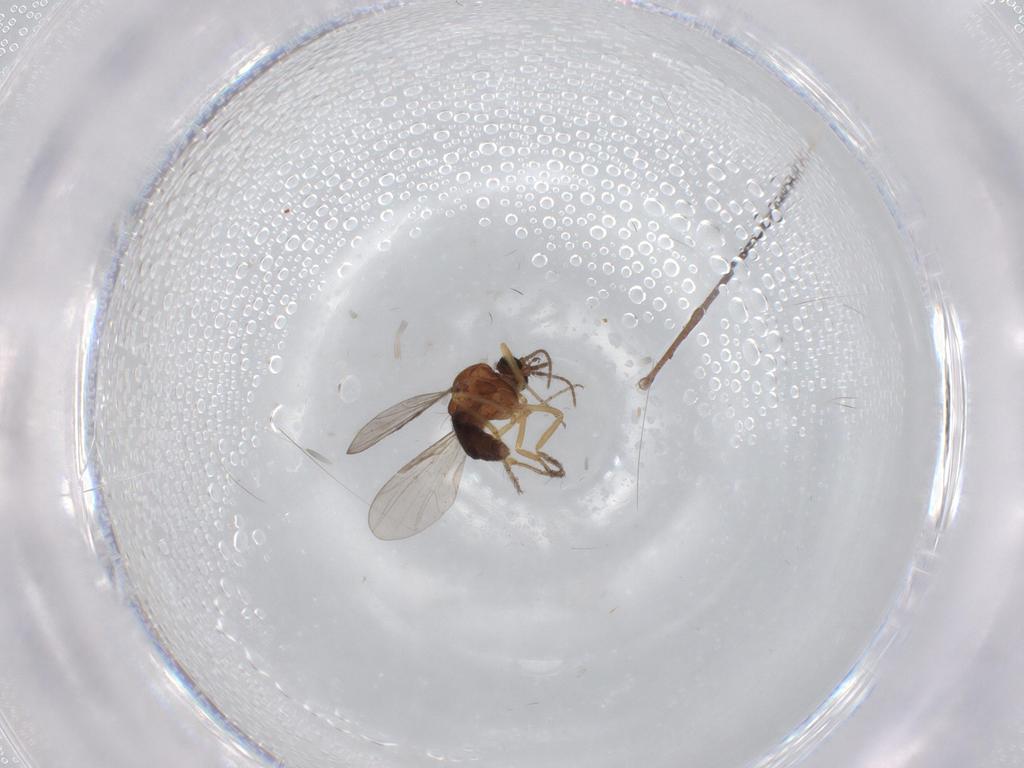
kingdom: Animalia
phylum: Arthropoda
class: Insecta
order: Diptera
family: Ceratopogonidae
